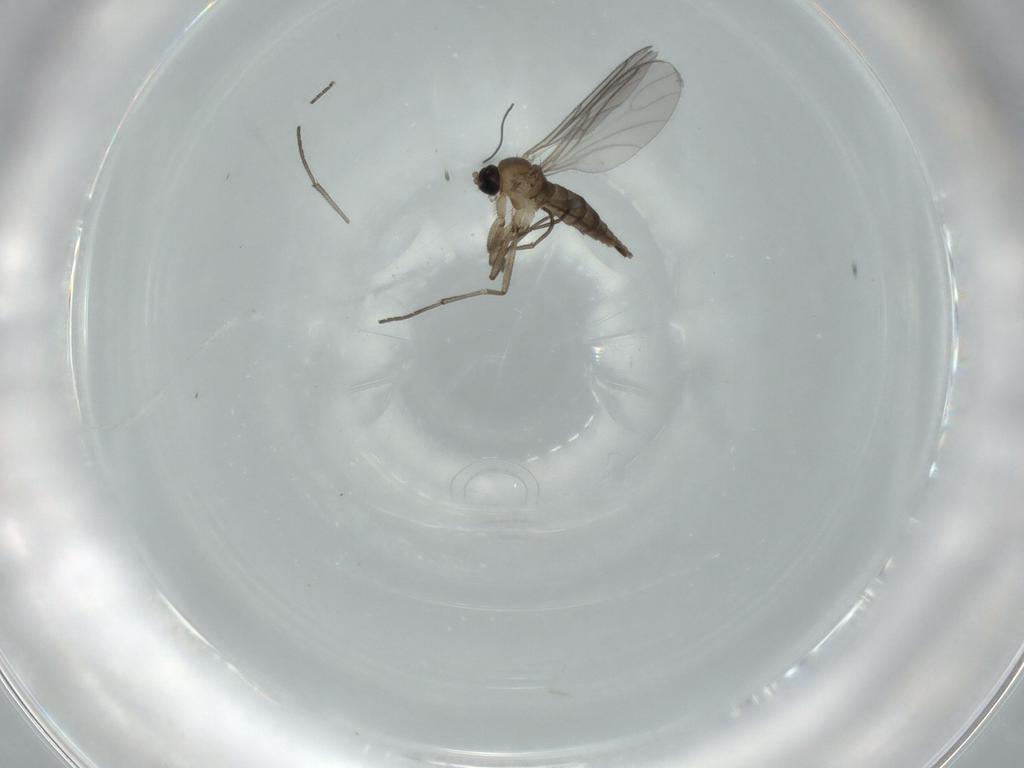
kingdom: Animalia
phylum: Arthropoda
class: Insecta
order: Diptera
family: Sciaridae
